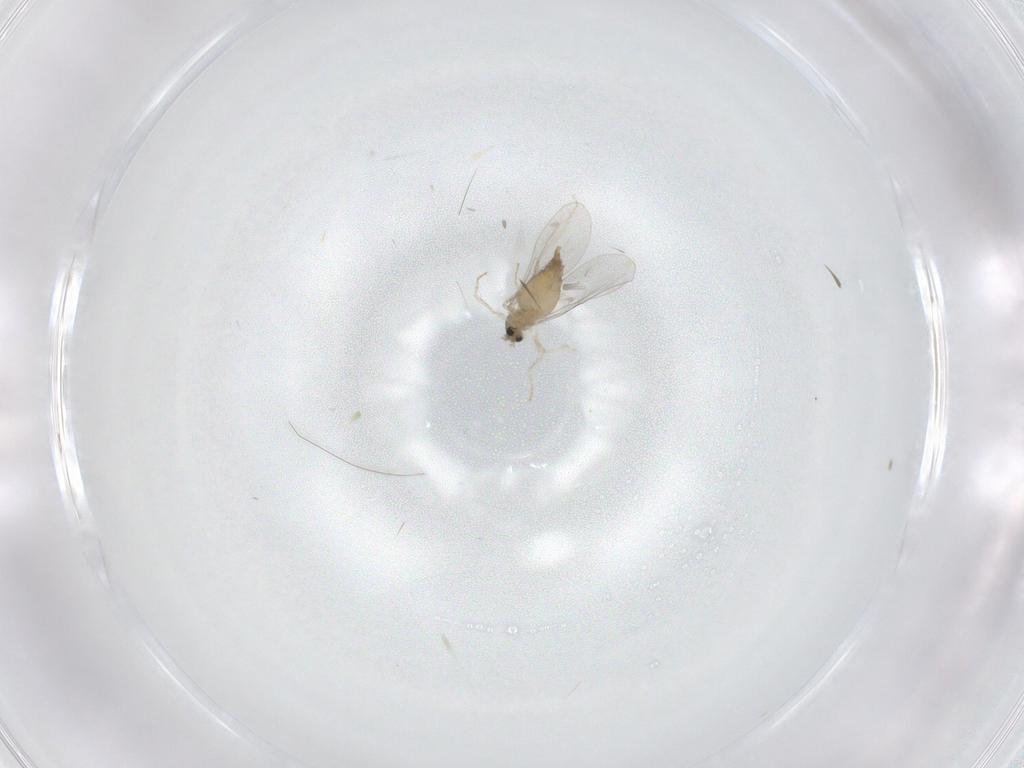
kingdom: Animalia
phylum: Arthropoda
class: Insecta
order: Diptera
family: Cecidomyiidae
